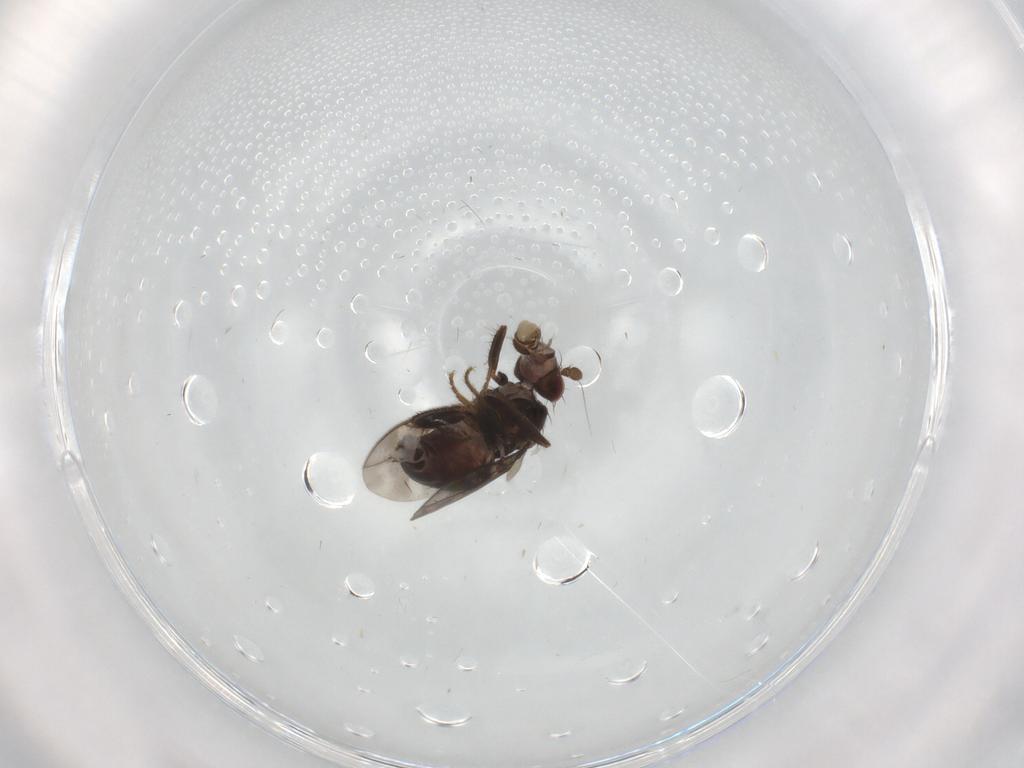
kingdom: Animalia
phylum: Arthropoda
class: Insecta
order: Diptera
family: Sphaeroceridae
